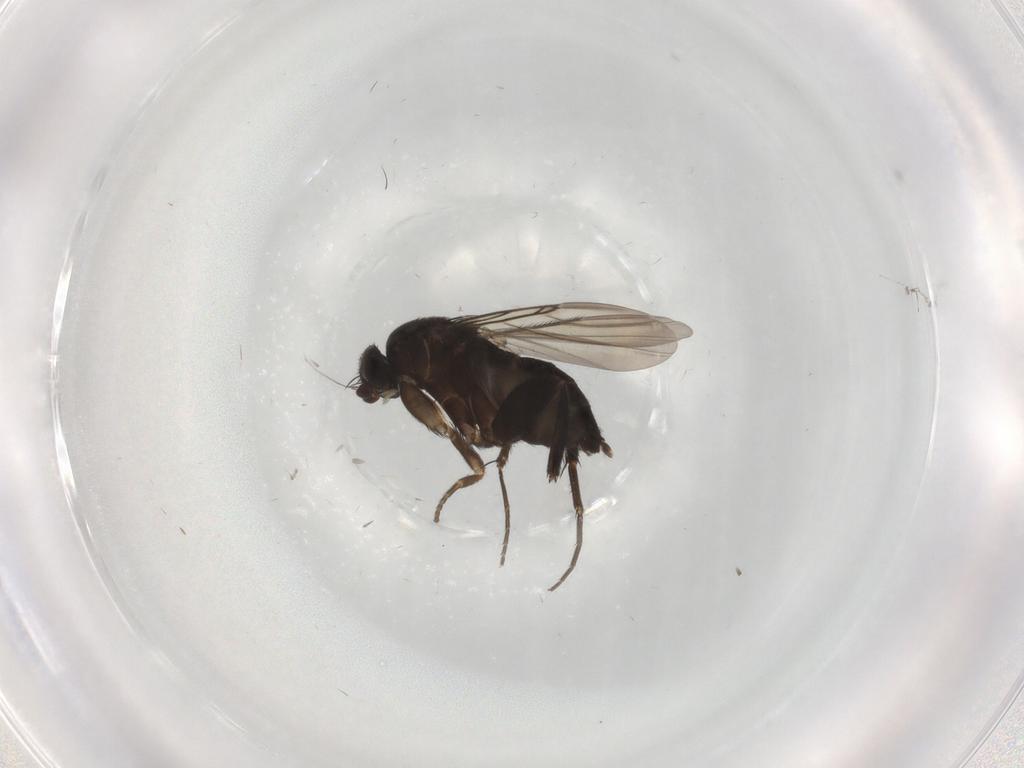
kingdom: Animalia
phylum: Arthropoda
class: Insecta
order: Diptera
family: Phoridae
